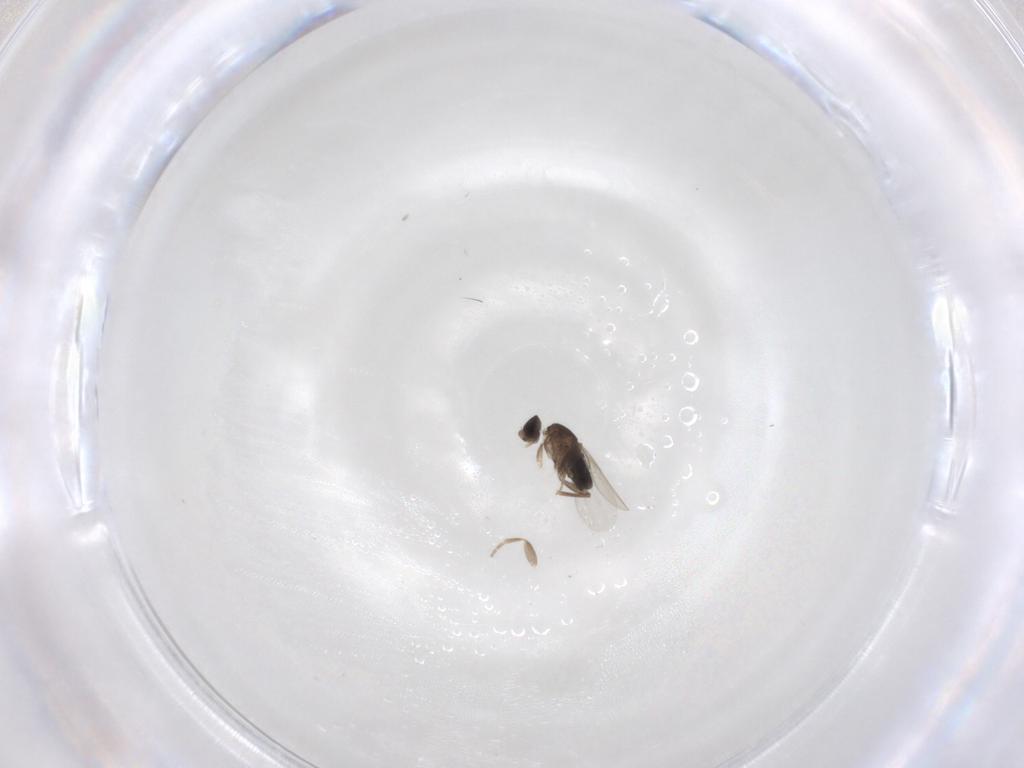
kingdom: Animalia
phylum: Arthropoda
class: Insecta
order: Diptera
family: Phoridae
